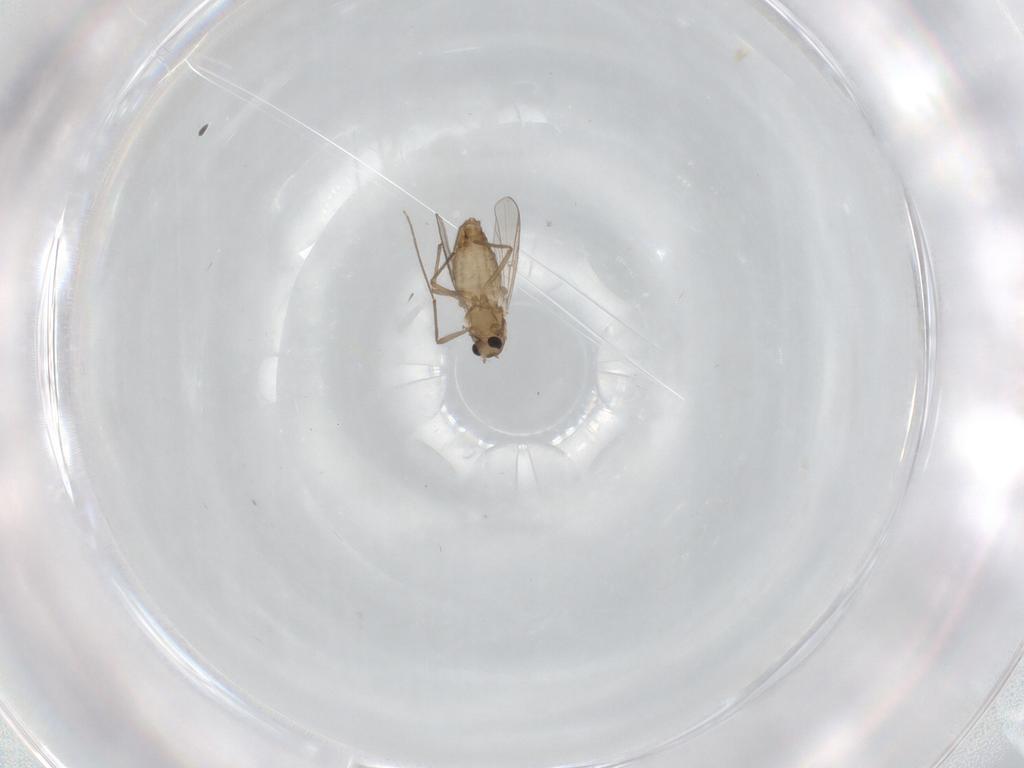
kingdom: Animalia
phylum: Arthropoda
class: Insecta
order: Diptera
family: Chironomidae
